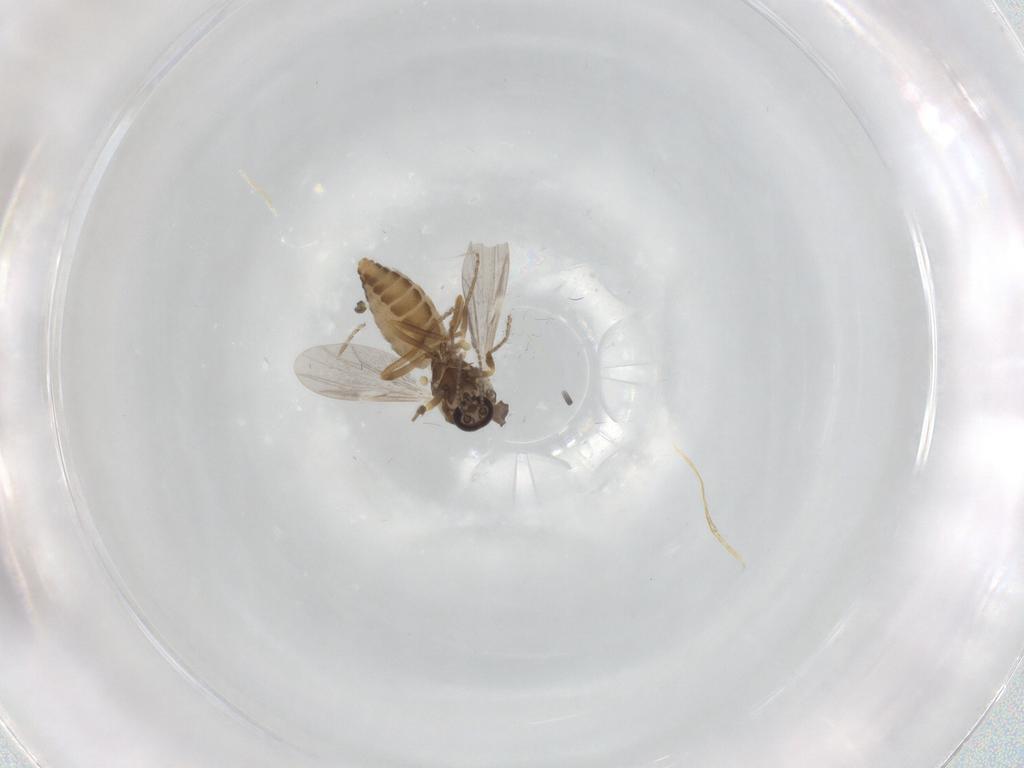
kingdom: Animalia
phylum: Arthropoda
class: Insecta
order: Diptera
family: Ceratopogonidae
